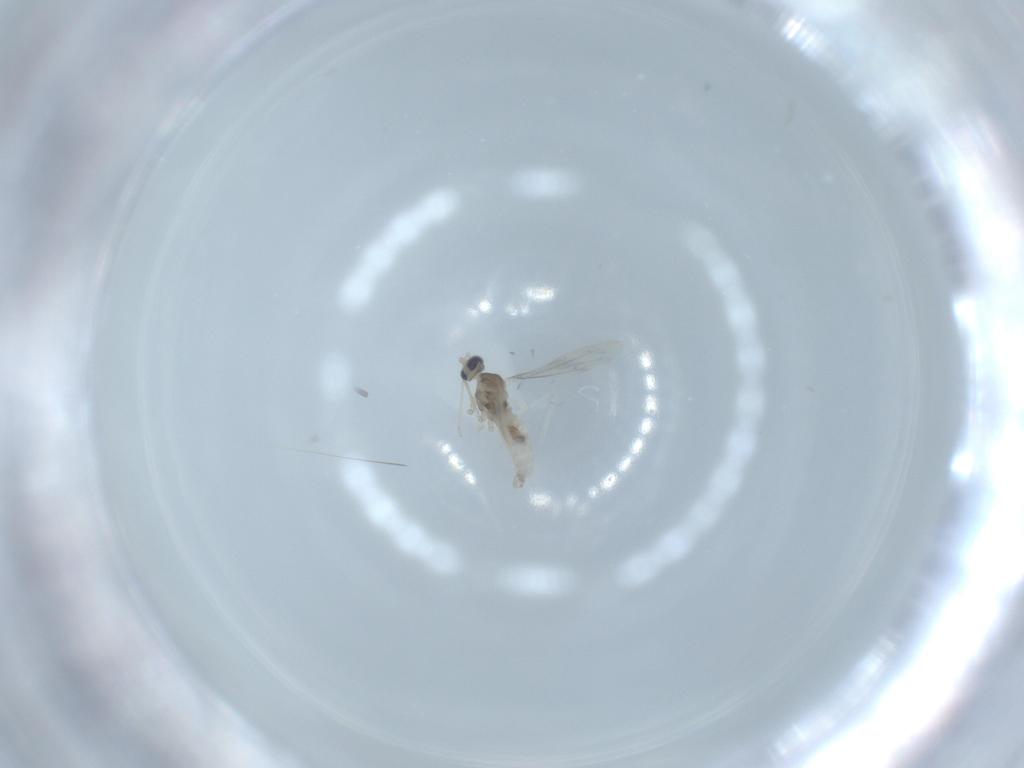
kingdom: Animalia
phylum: Arthropoda
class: Insecta
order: Diptera
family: Cecidomyiidae
